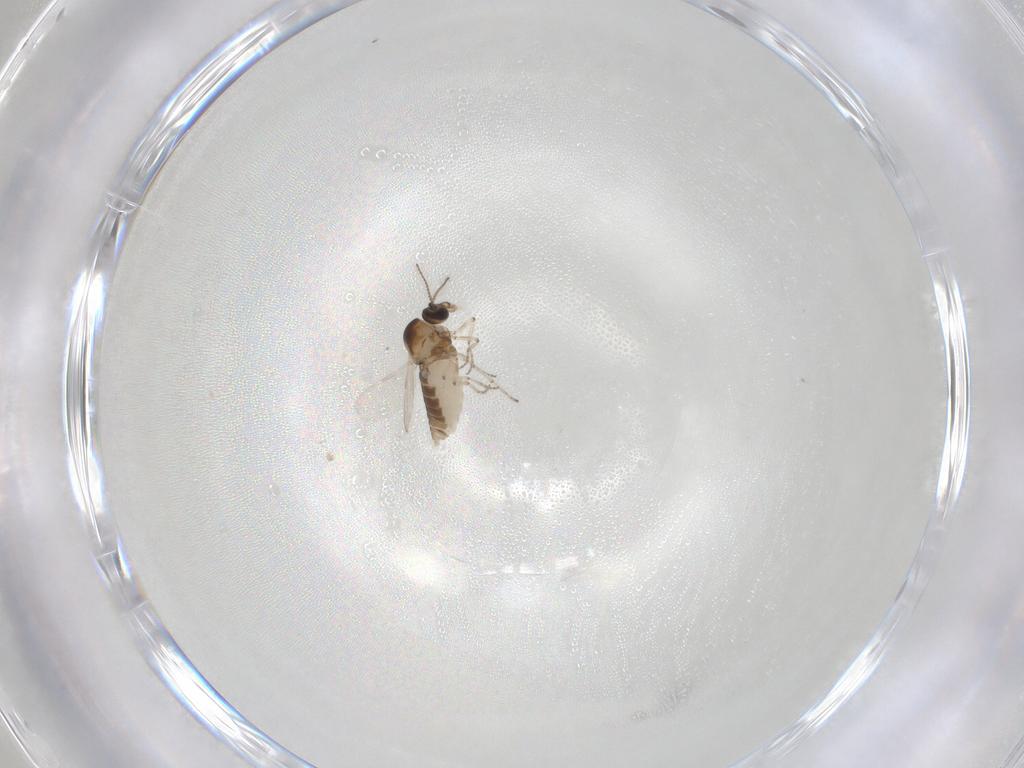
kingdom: Animalia
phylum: Arthropoda
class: Insecta
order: Diptera
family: Ceratopogonidae
